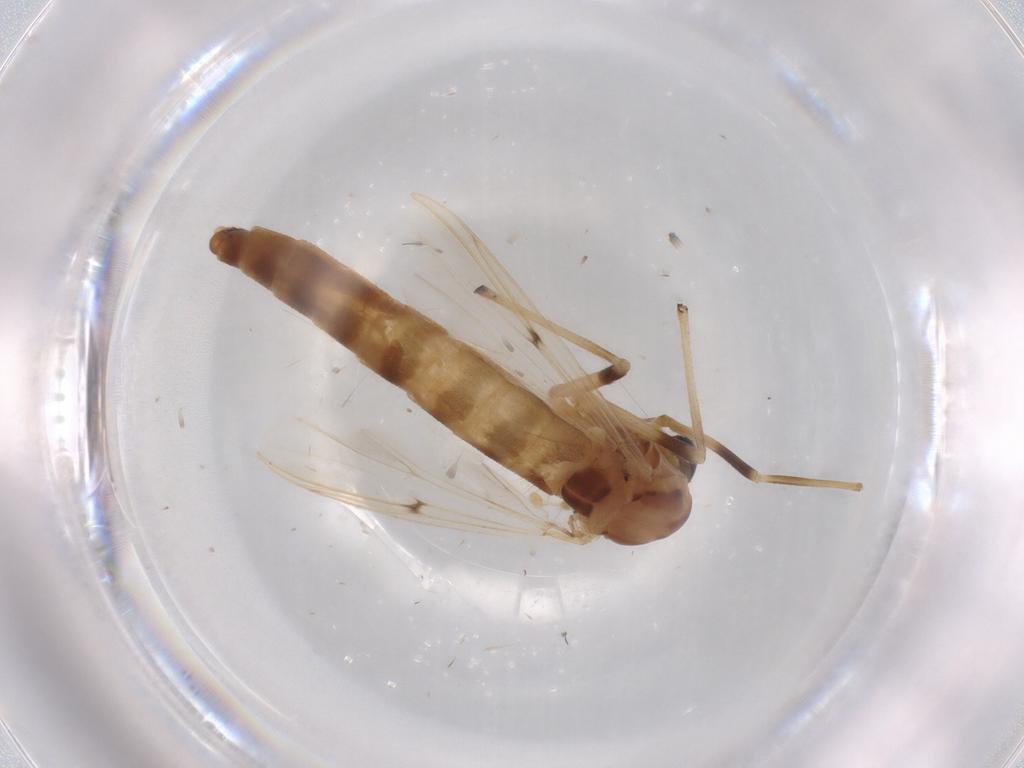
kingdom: Animalia
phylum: Arthropoda
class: Insecta
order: Diptera
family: Chironomidae
